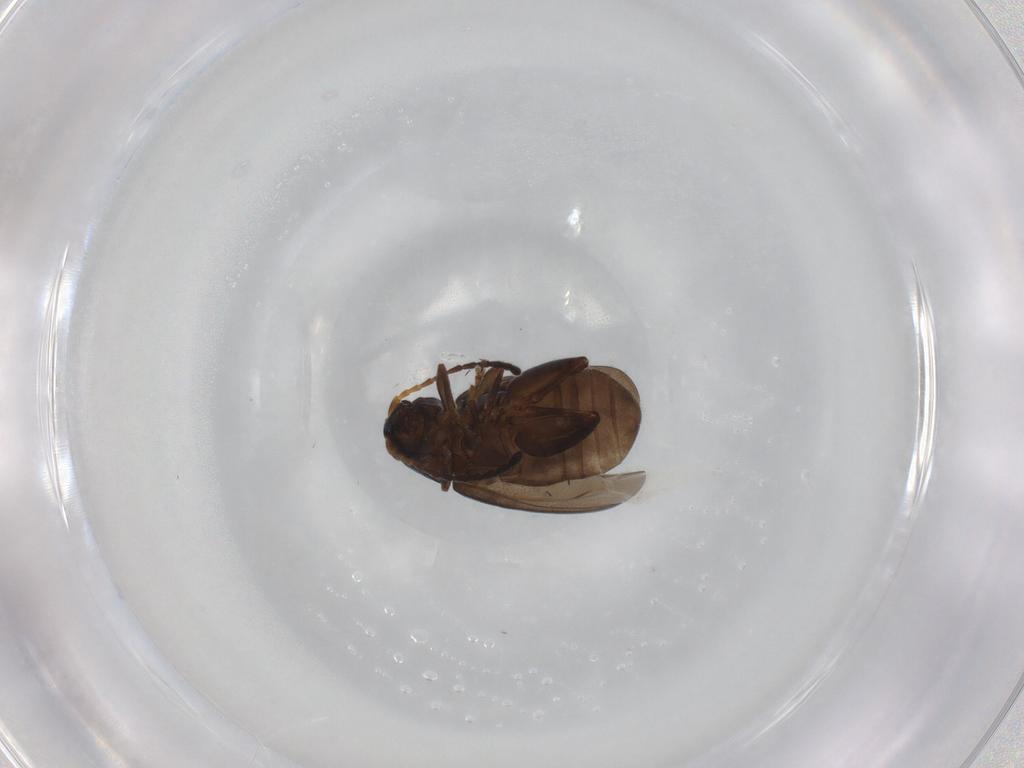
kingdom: Animalia
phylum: Arthropoda
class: Insecta
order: Coleoptera
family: Chrysomelidae
